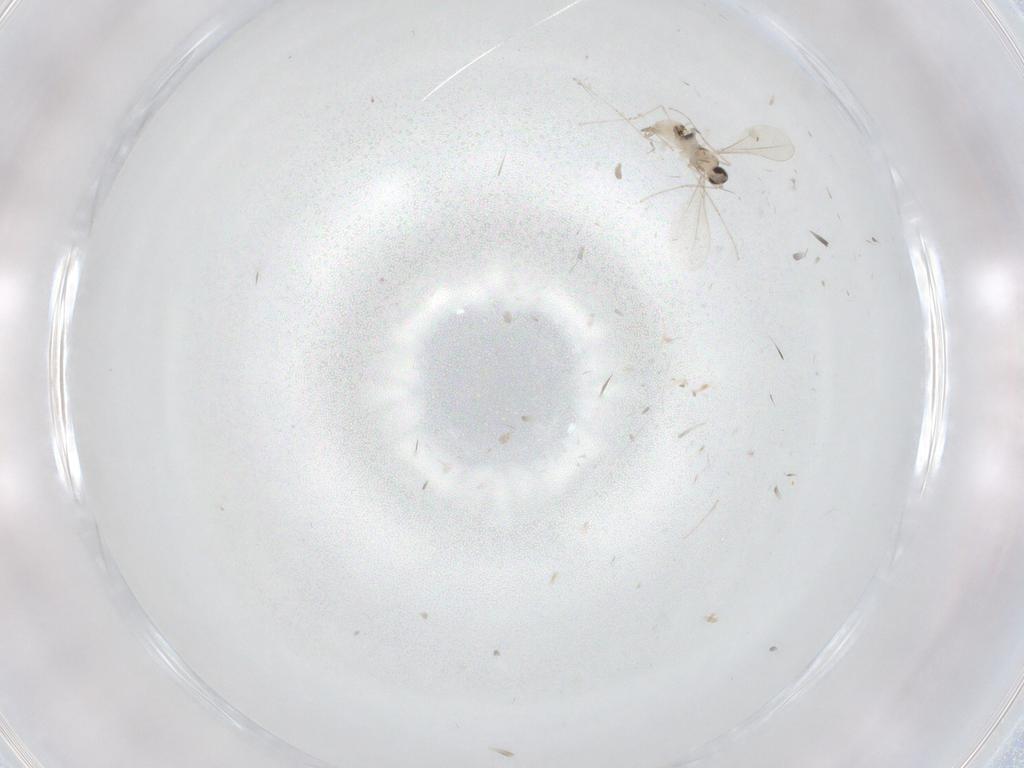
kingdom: Animalia
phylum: Arthropoda
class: Insecta
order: Diptera
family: Cecidomyiidae
